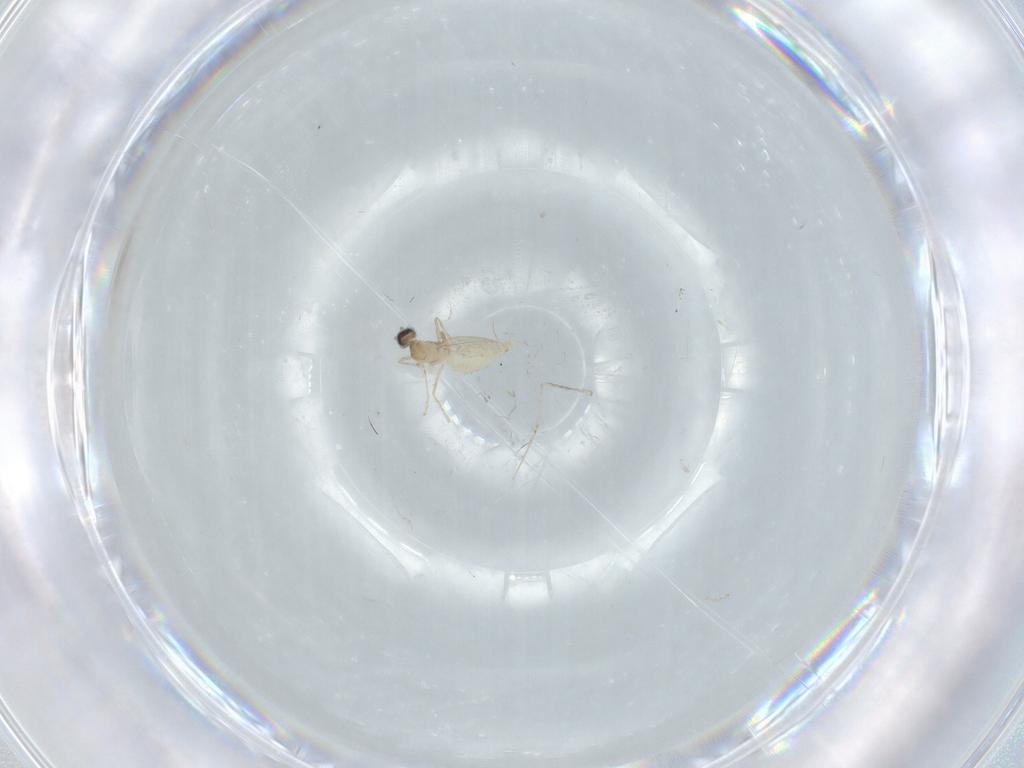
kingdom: Animalia
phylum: Arthropoda
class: Insecta
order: Diptera
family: Cecidomyiidae
